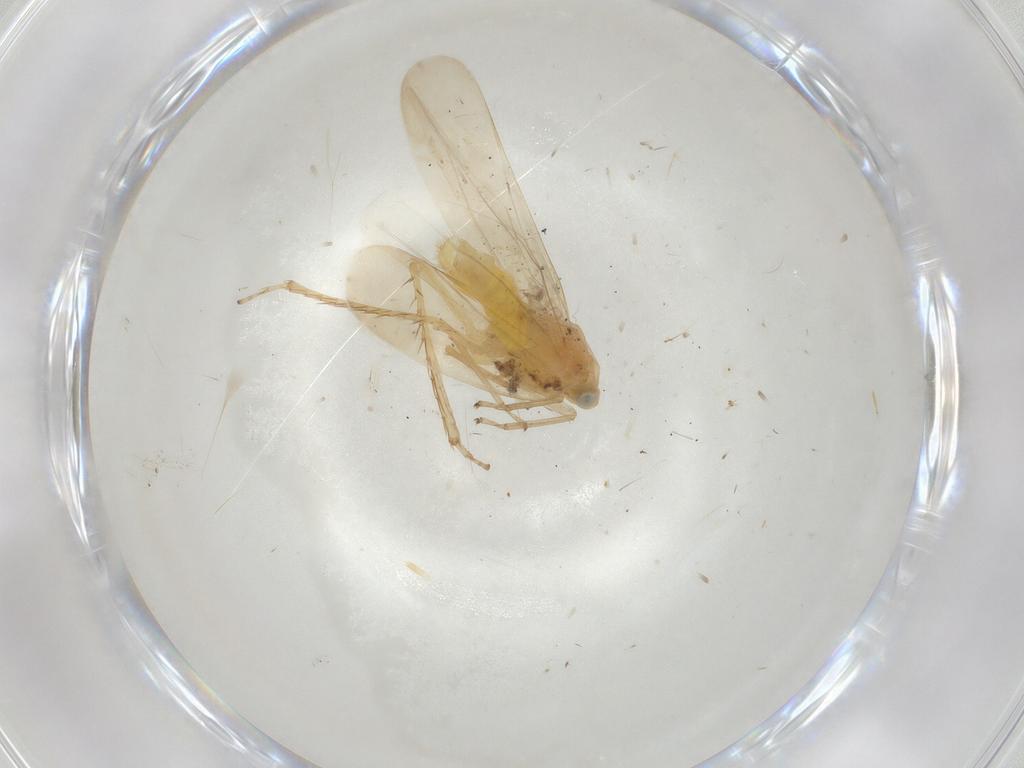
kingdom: Animalia
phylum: Arthropoda
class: Insecta
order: Hemiptera
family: Cicadellidae
